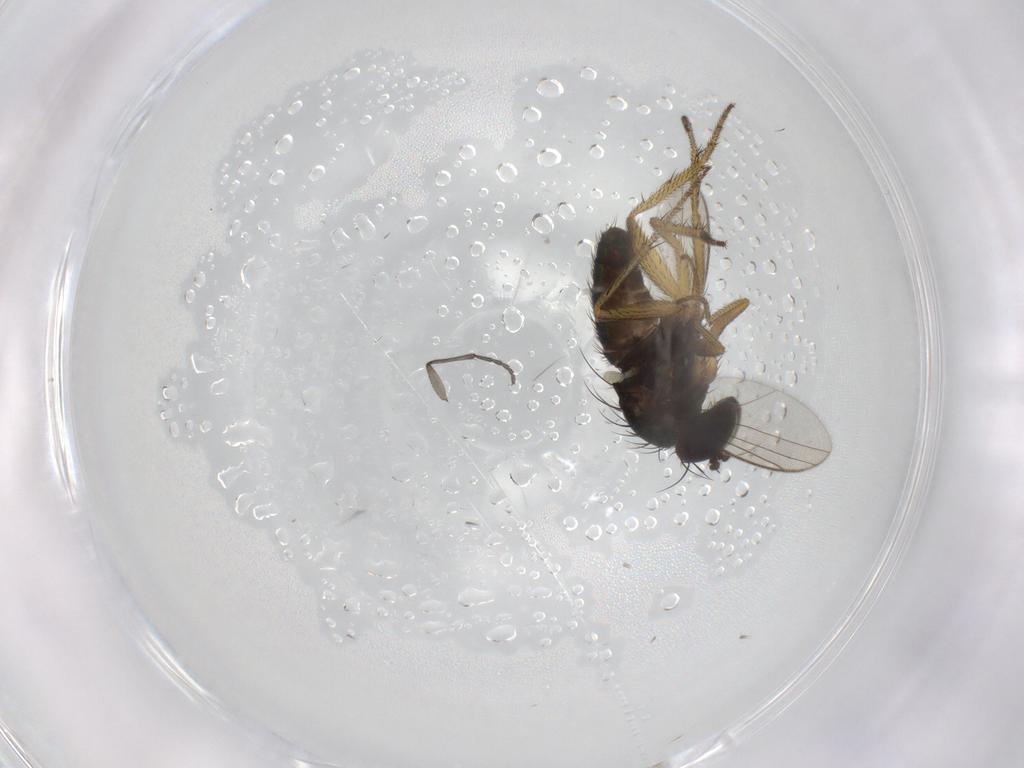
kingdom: Animalia
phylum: Arthropoda
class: Insecta
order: Diptera
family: Sciaridae
